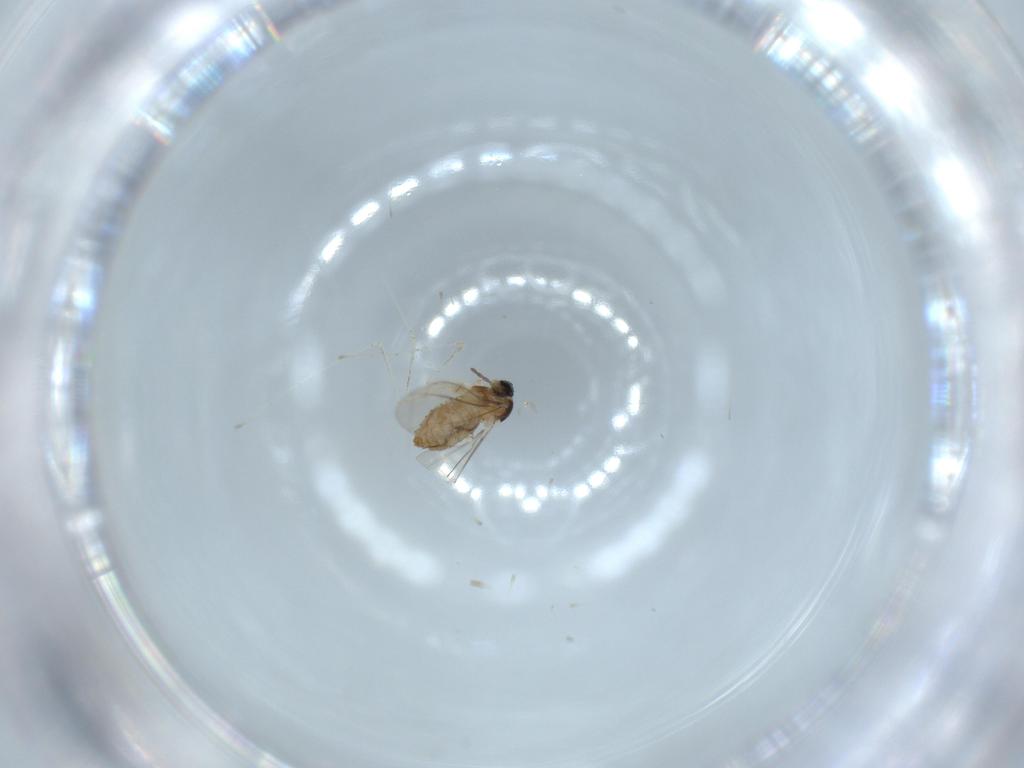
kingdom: Animalia
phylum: Arthropoda
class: Insecta
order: Diptera
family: Cecidomyiidae
